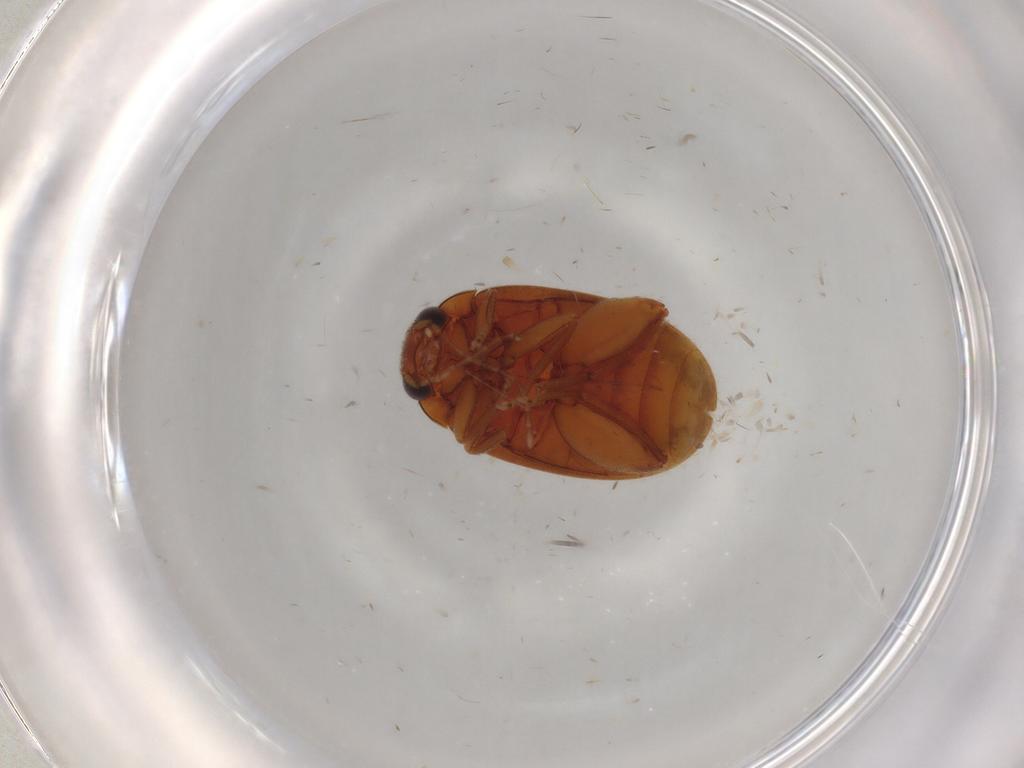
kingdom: Animalia
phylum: Arthropoda
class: Insecta
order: Coleoptera
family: Scirtidae
